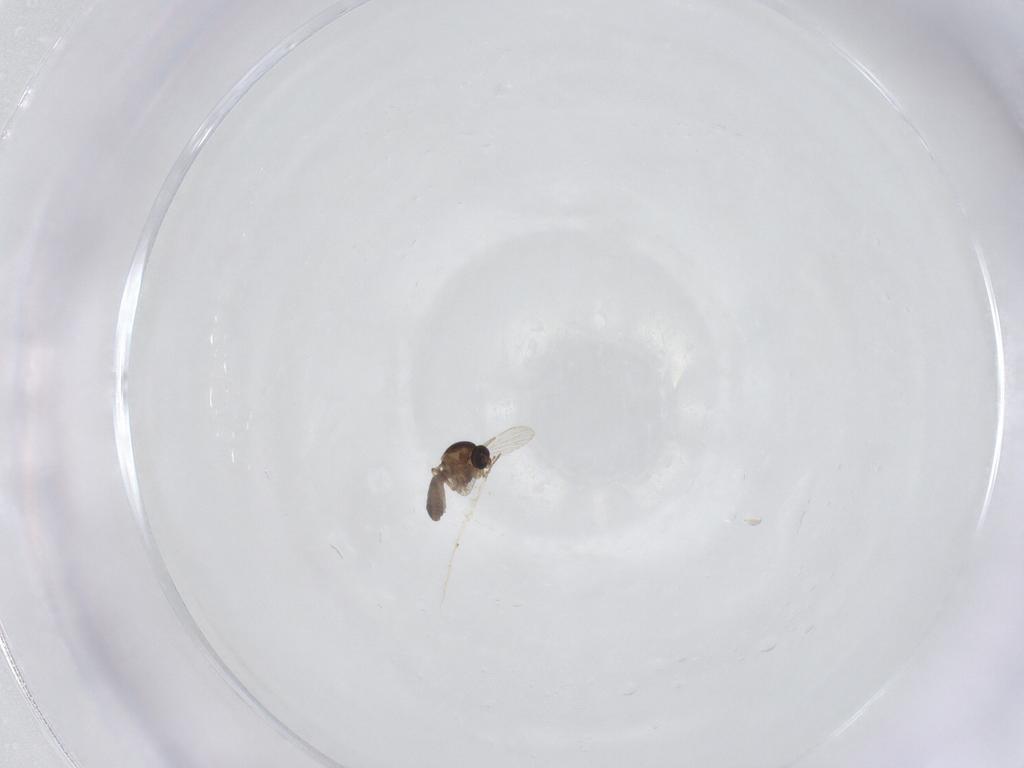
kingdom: Animalia
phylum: Arthropoda
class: Insecta
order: Diptera
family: Ceratopogonidae
